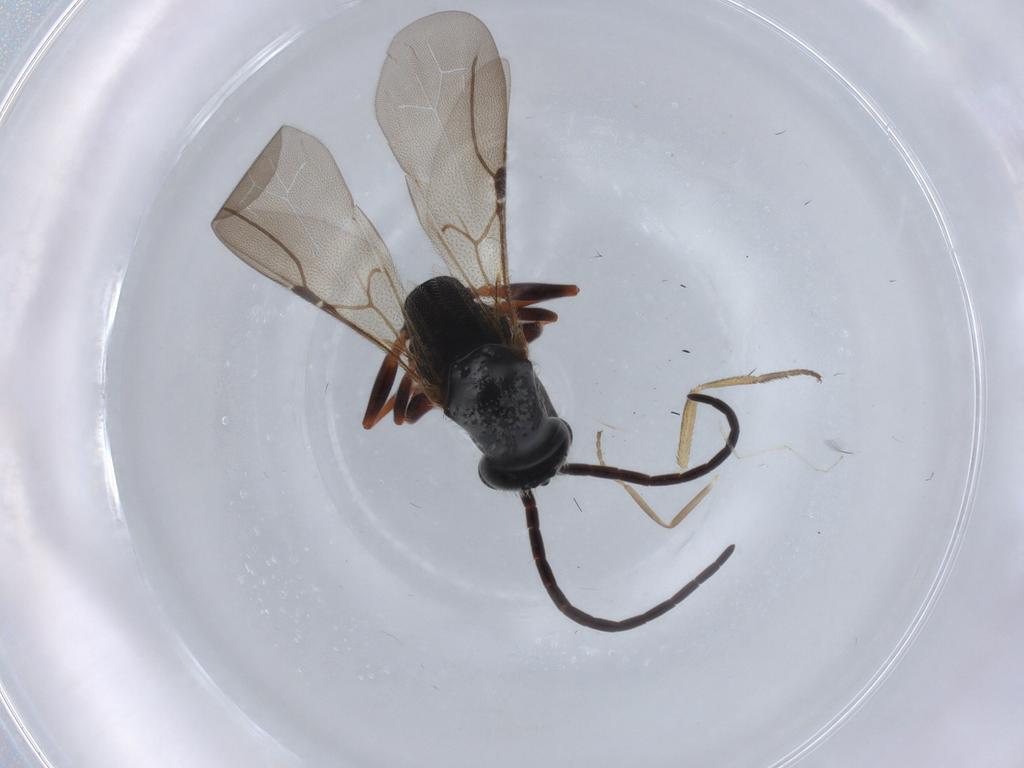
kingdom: Animalia
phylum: Arthropoda
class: Insecta
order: Hymenoptera
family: Bethylidae
